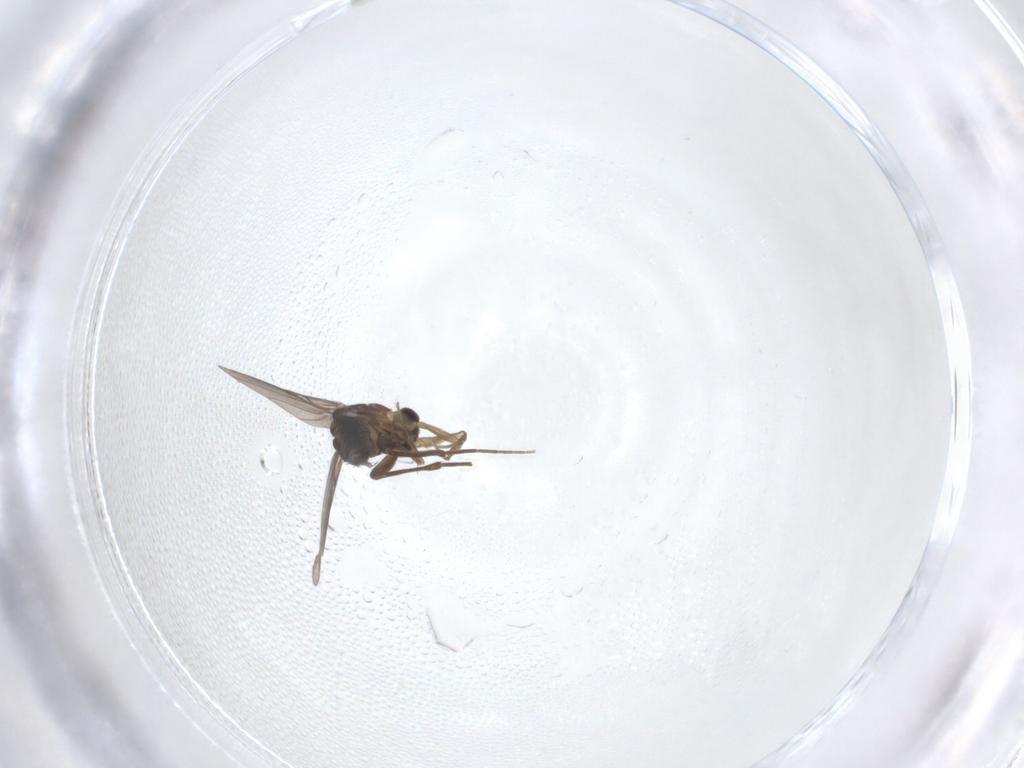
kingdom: Animalia
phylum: Arthropoda
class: Insecta
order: Diptera
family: Phoridae
